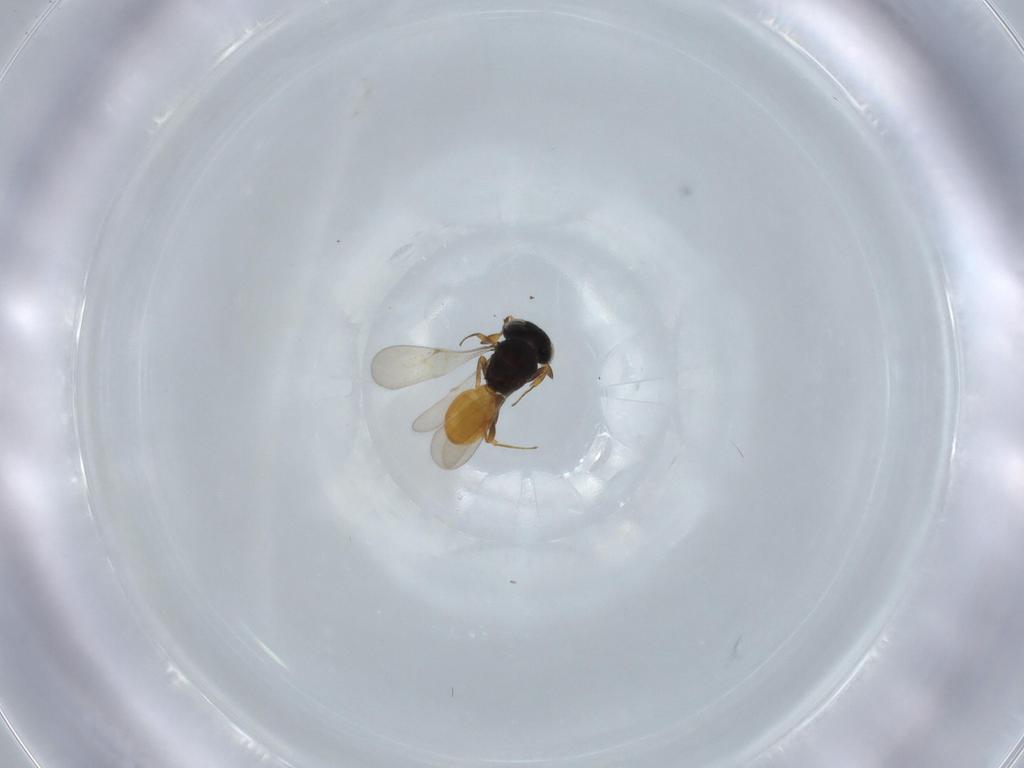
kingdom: Animalia
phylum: Arthropoda
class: Insecta
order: Hymenoptera
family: Scelionidae
